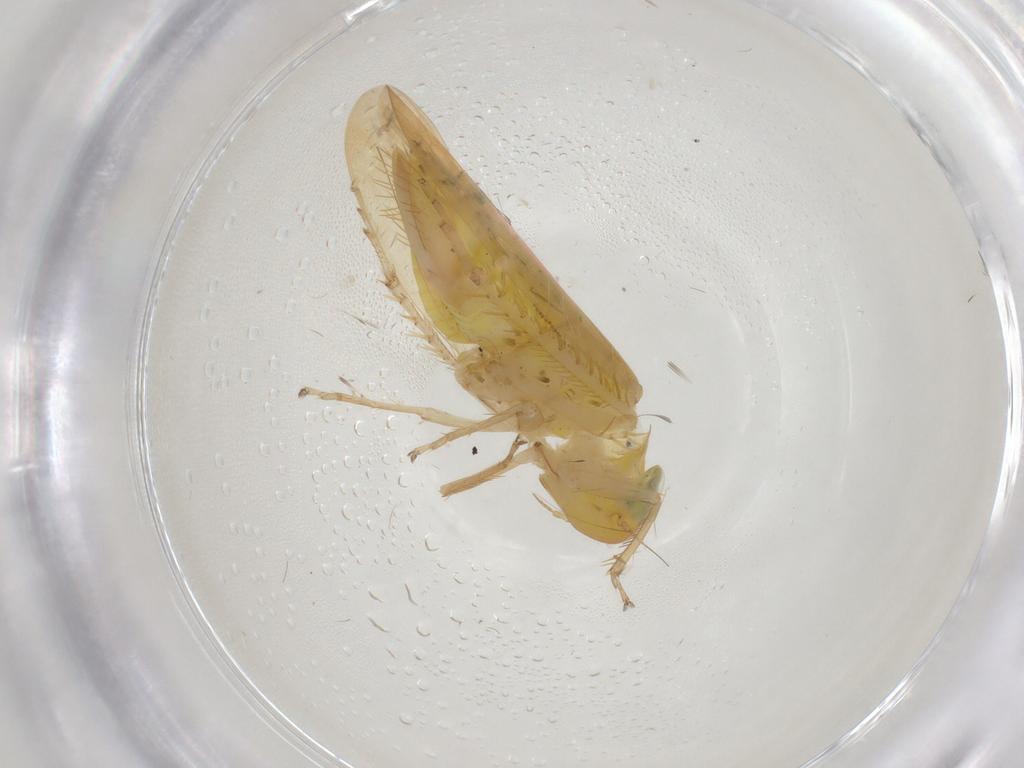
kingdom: Animalia
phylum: Arthropoda
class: Insecta
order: Hemiptera
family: Cicadellidae
